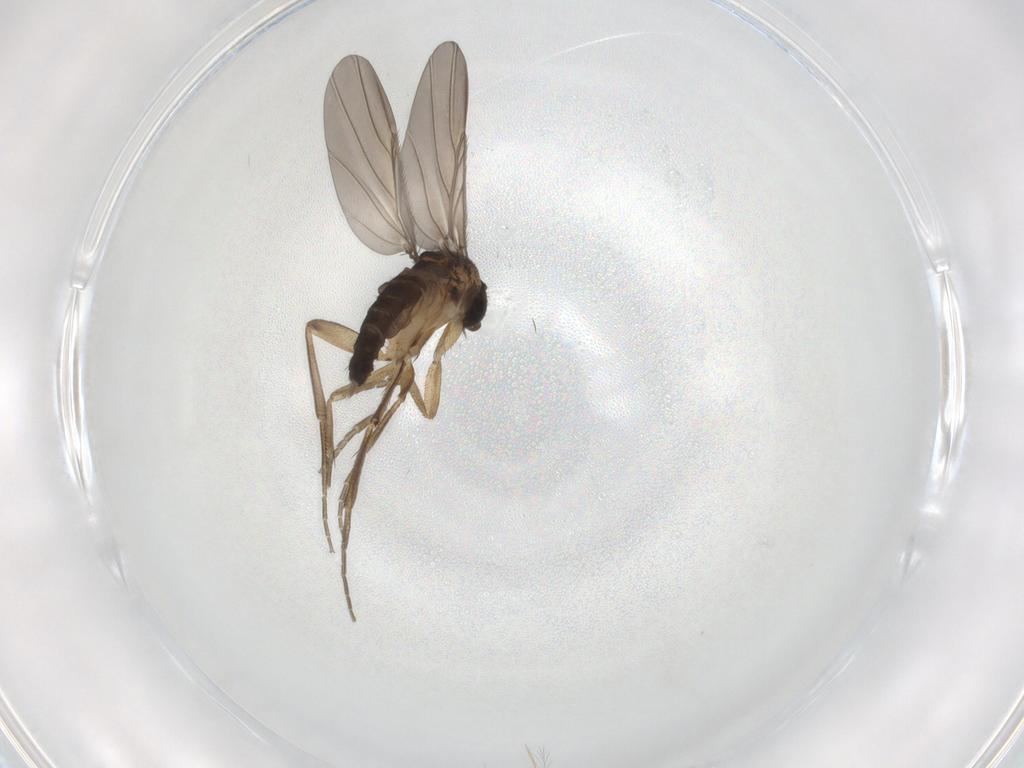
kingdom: Animalia
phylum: Arthropoda
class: Insecta
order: Diptera
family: Phoridae
